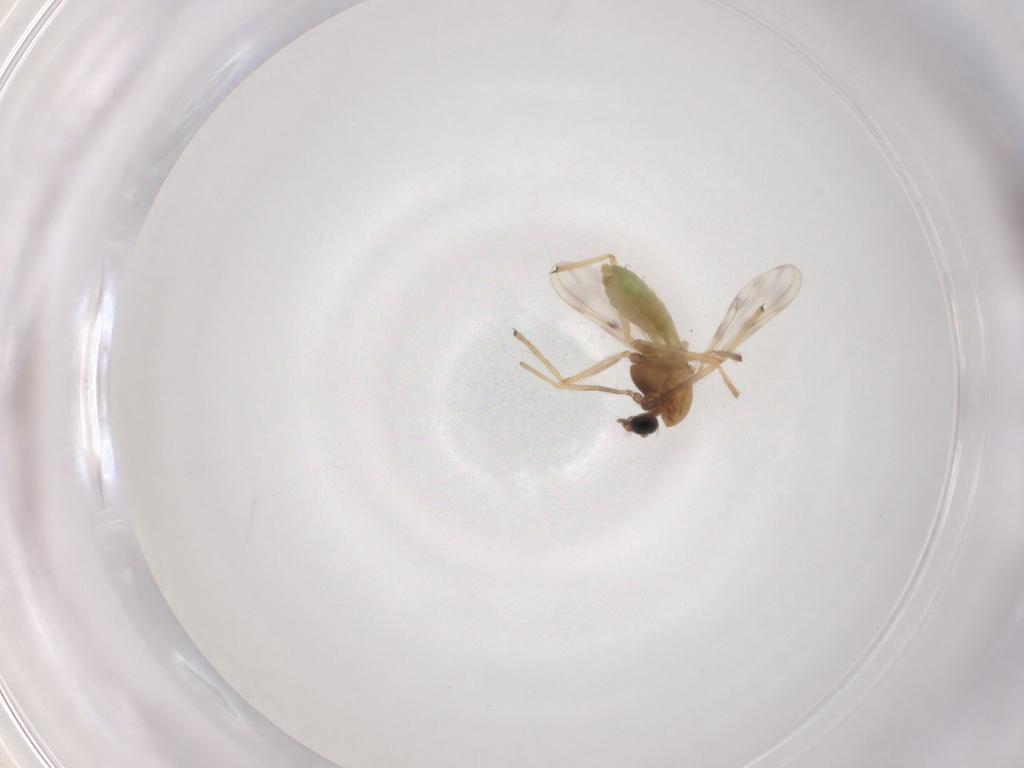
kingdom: Animalia
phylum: Arthropoda
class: Insecta
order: Diptera
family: Chironomidae
